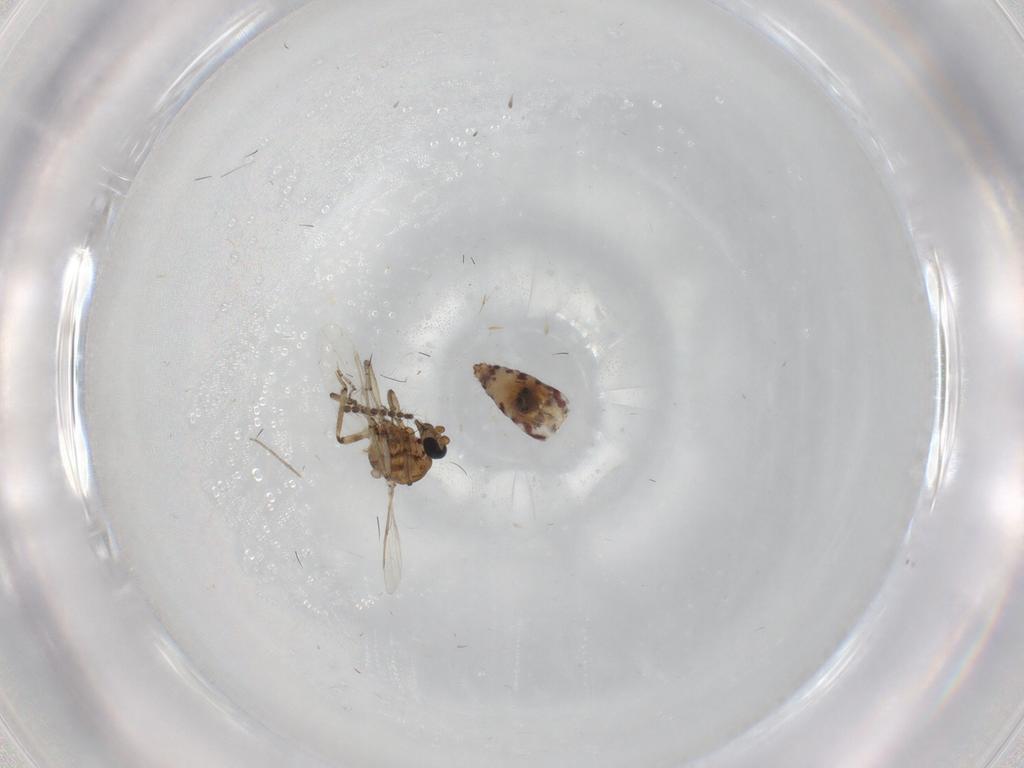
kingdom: Animalia
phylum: Arthropoda
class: Insecta
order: Diptera
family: Ceratopogonidae
